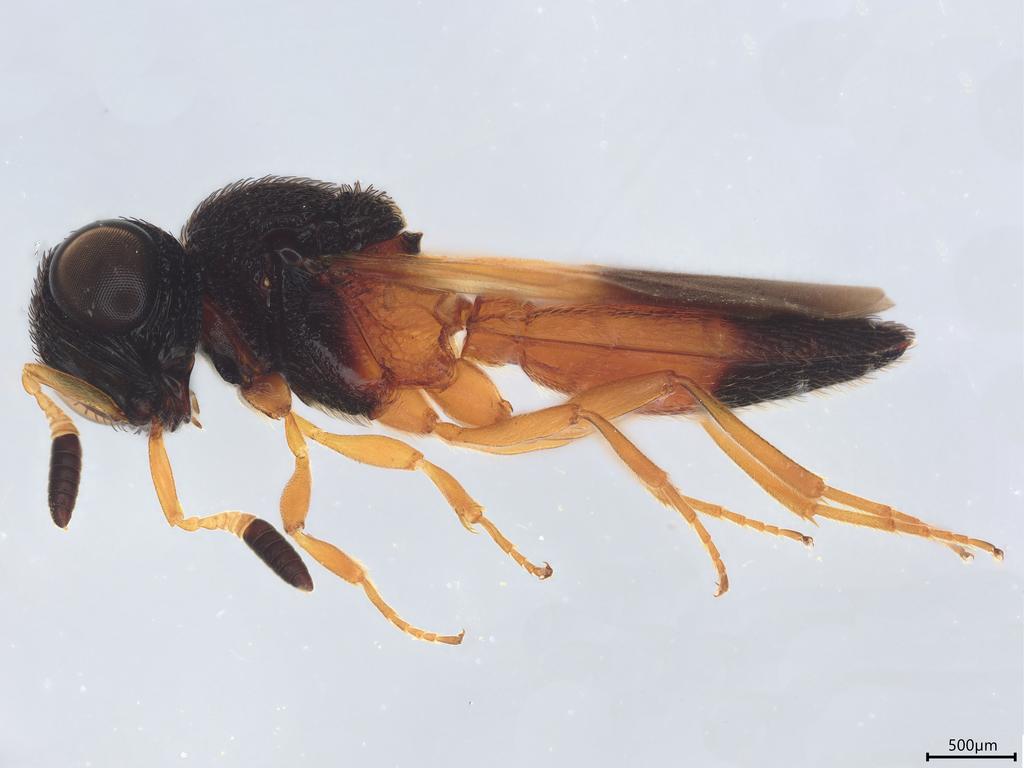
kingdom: Animalia
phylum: Arthropoda
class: Insecta
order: Hymenoptera
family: Scelionidae
